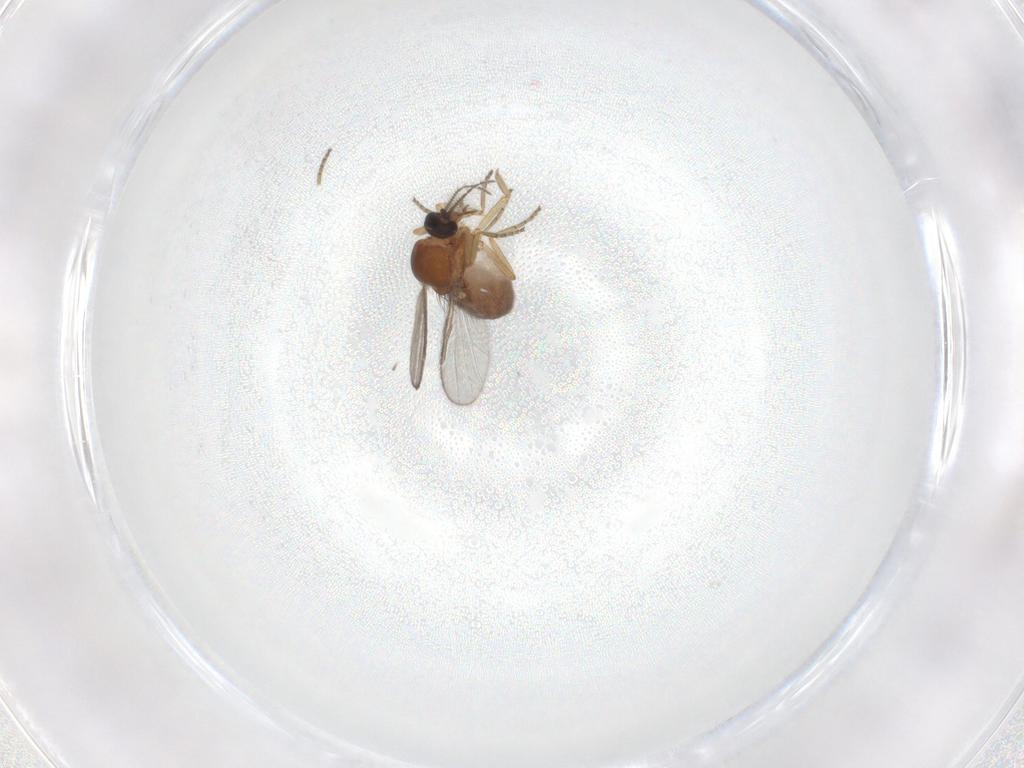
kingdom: Animalia
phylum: Arthropoda
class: Insecta
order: Diptera
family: Ceratopogonidae
